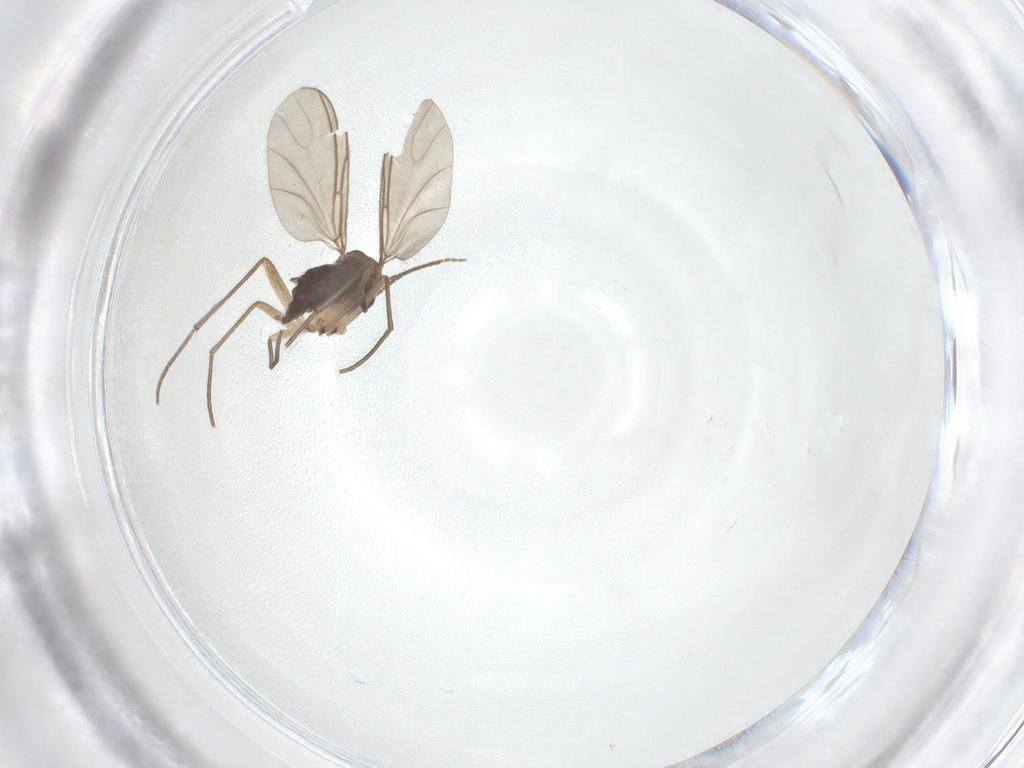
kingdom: Animalia
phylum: Arthropoda
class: Insecta
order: Diptera
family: Sciaridae
